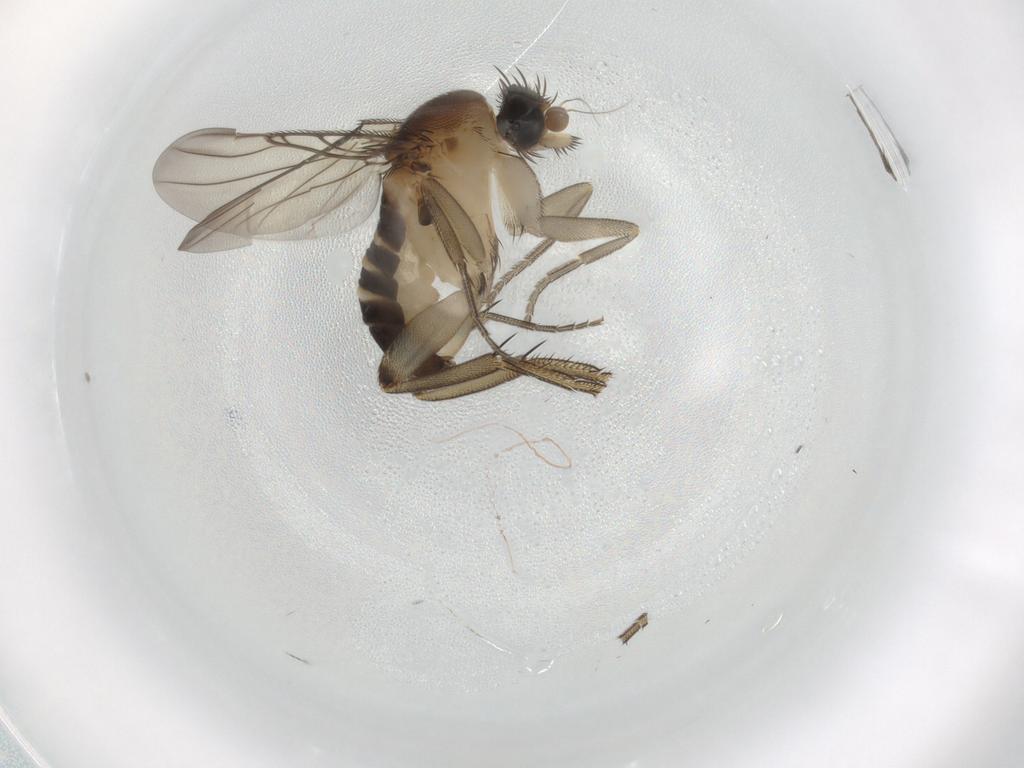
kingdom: Animalia
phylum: Arthropoda
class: Insecta
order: Diptera
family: Phoridae
